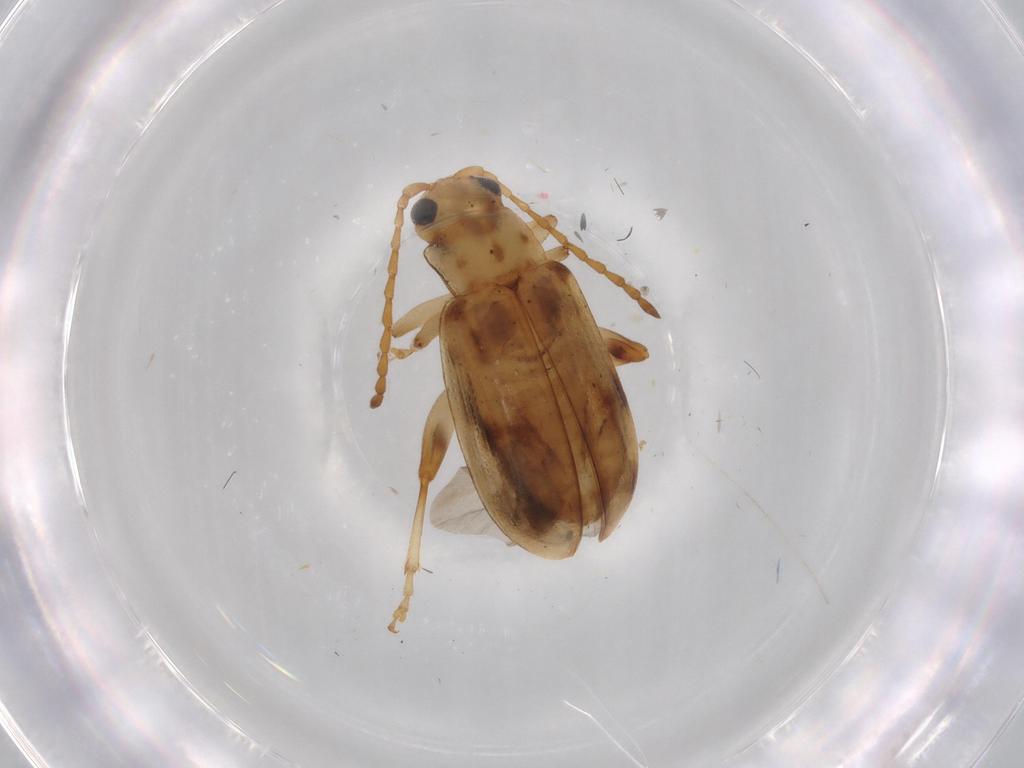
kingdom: Animalia
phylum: Arthropoda
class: Insecta
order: Coleoptera
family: Chrysomelidae
